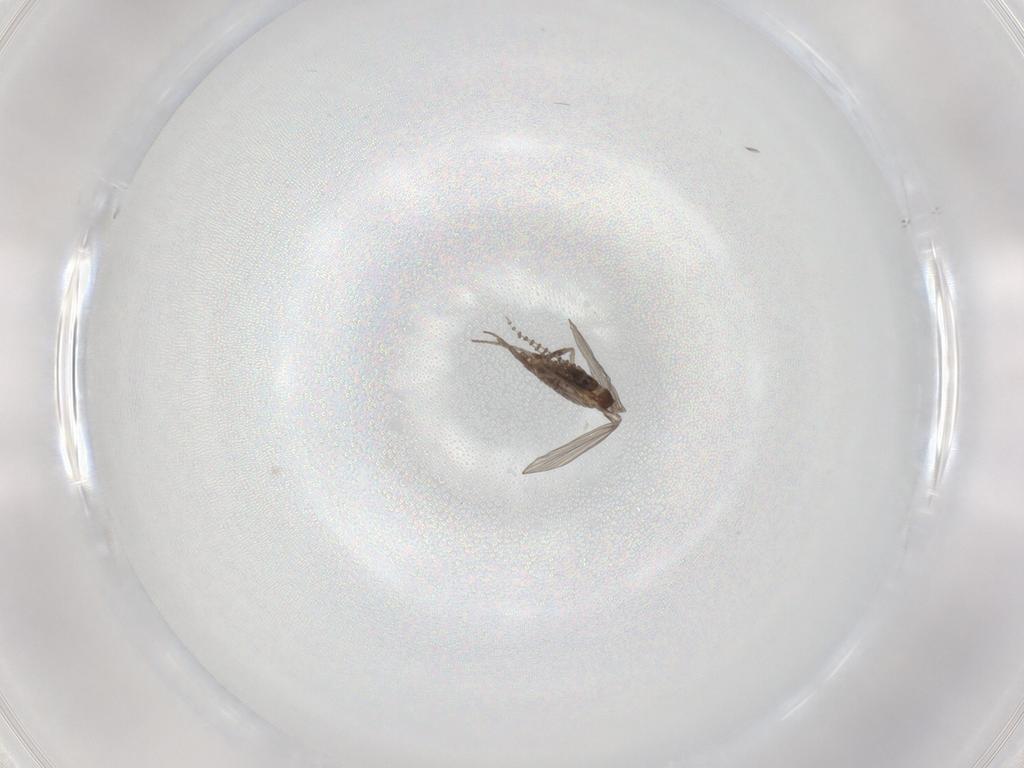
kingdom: Animalia
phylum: Arthropoda
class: Insecta
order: Diptera
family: Psychodidae
